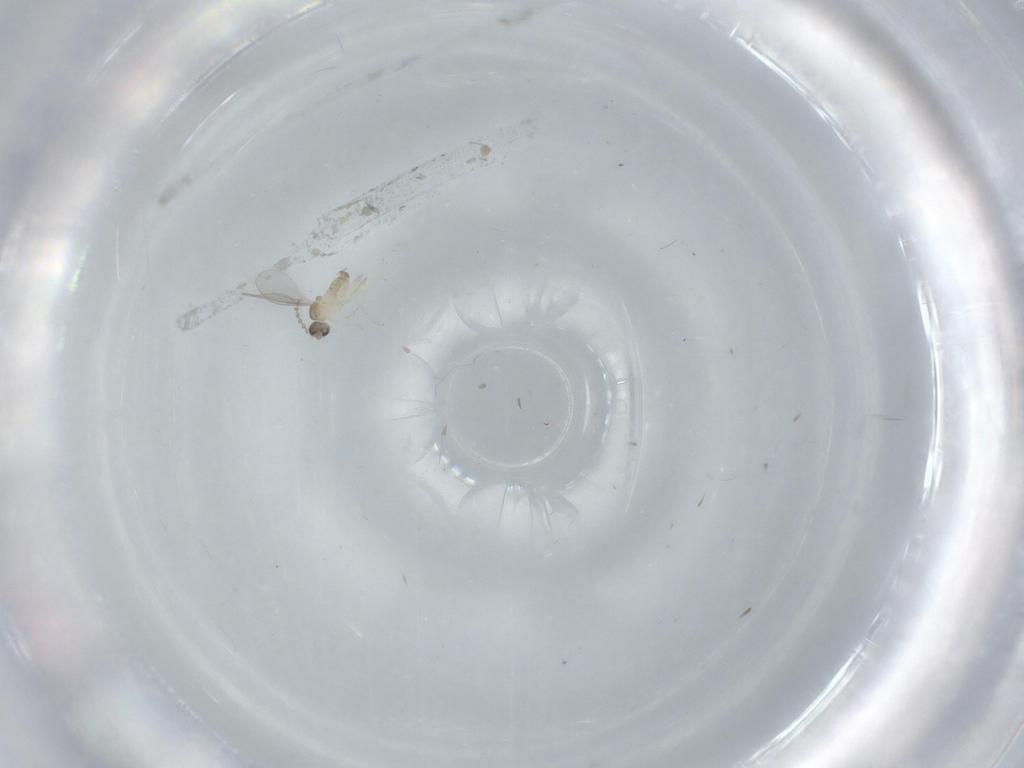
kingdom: Animalia
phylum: Arthropoda
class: Insecta
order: Diptera
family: Cecidomyiidae
